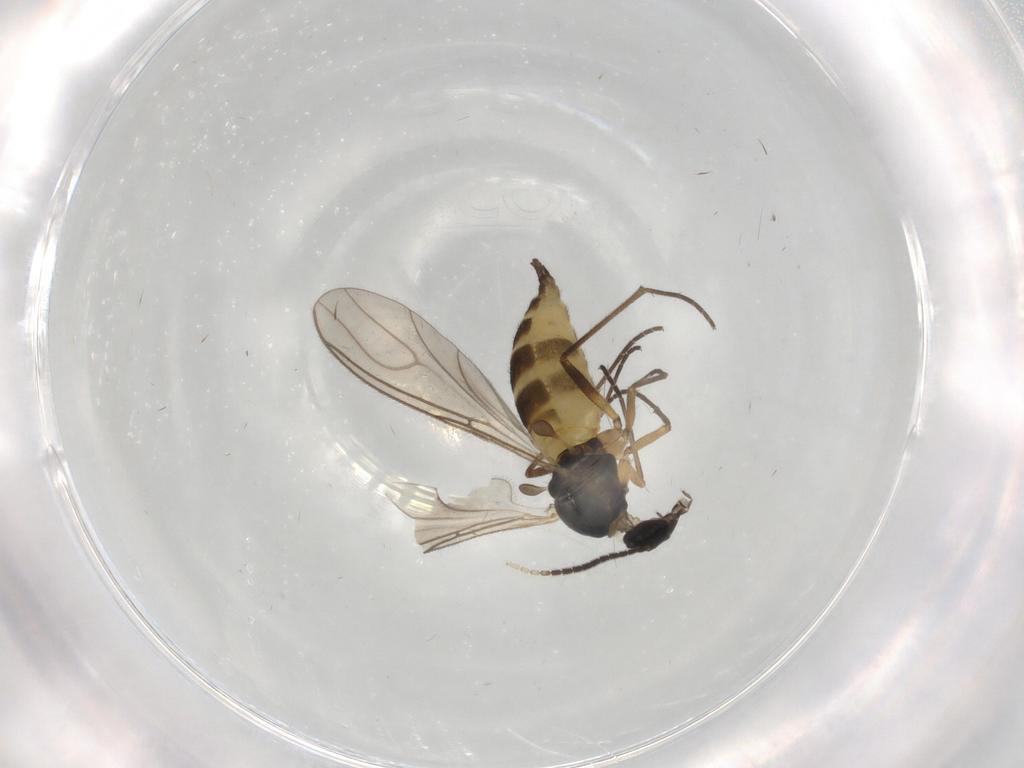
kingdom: Animalia
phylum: Arthropoda
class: Insecta
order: Diptera
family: Sciaridae
